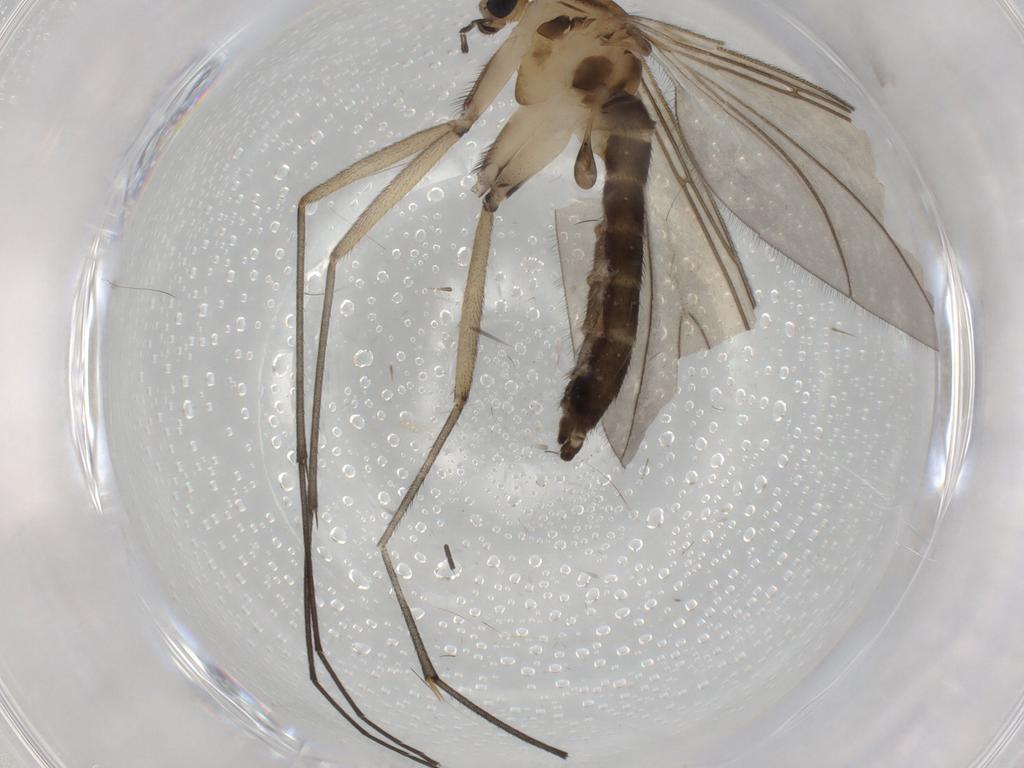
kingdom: Animalia
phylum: Arthropoda
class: Insecta
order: Diptera
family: Sciaridae
